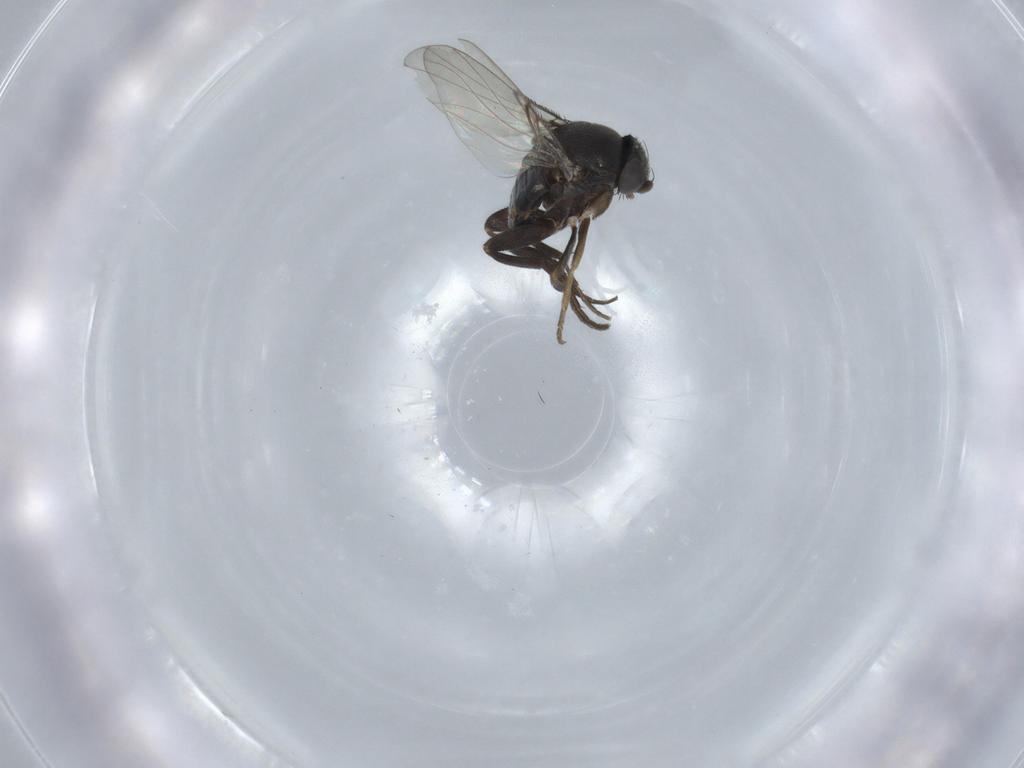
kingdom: Animalia
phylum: Arthropoda
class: Insecta
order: Diptera
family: Sciaridae
